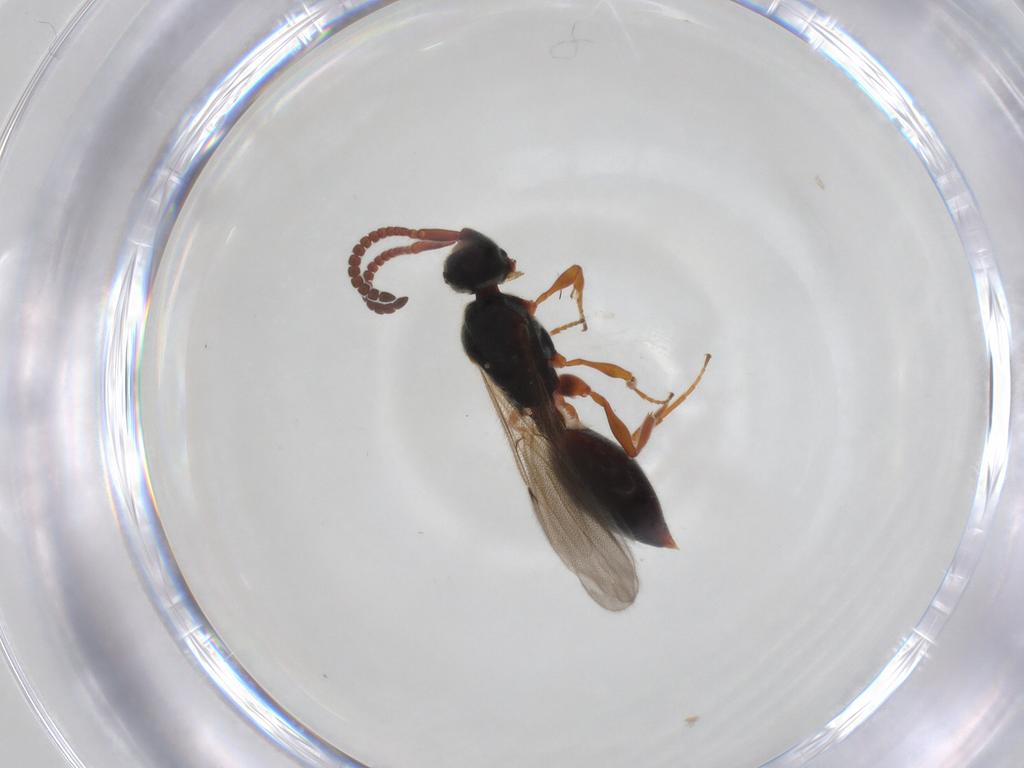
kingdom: Animalia
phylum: Arthropoda
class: Insecta
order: Hymenoptera
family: Diapriidae
